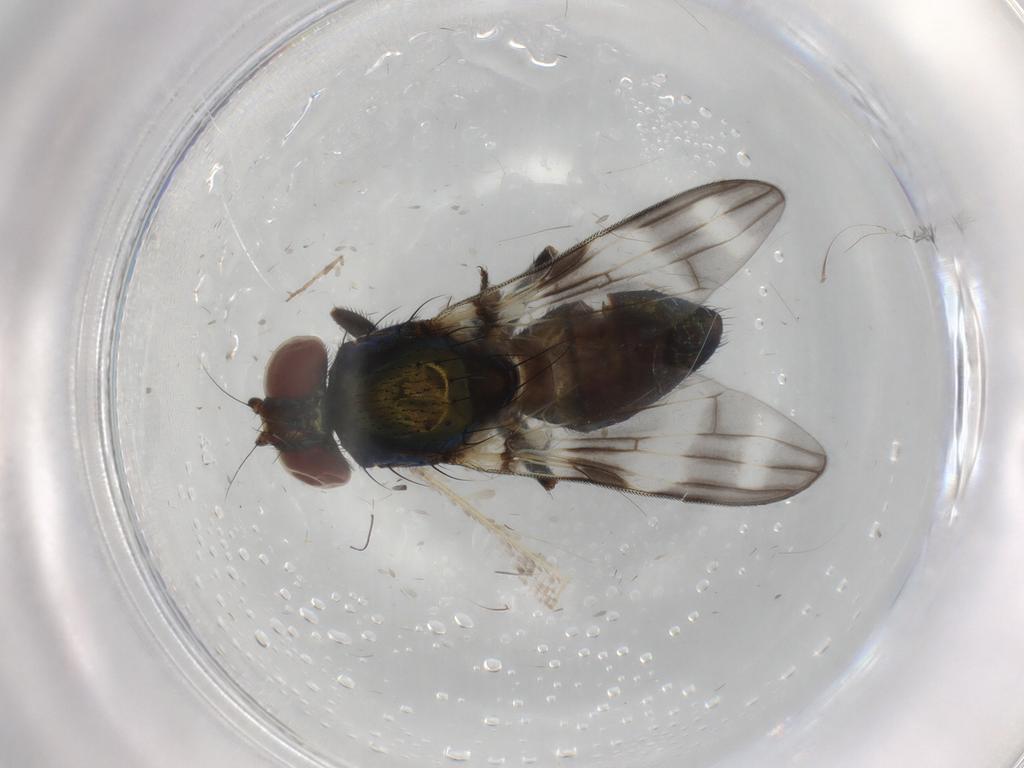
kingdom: Animalia
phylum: Arthropoda
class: Insecta
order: Diptera
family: Ulidiidae
